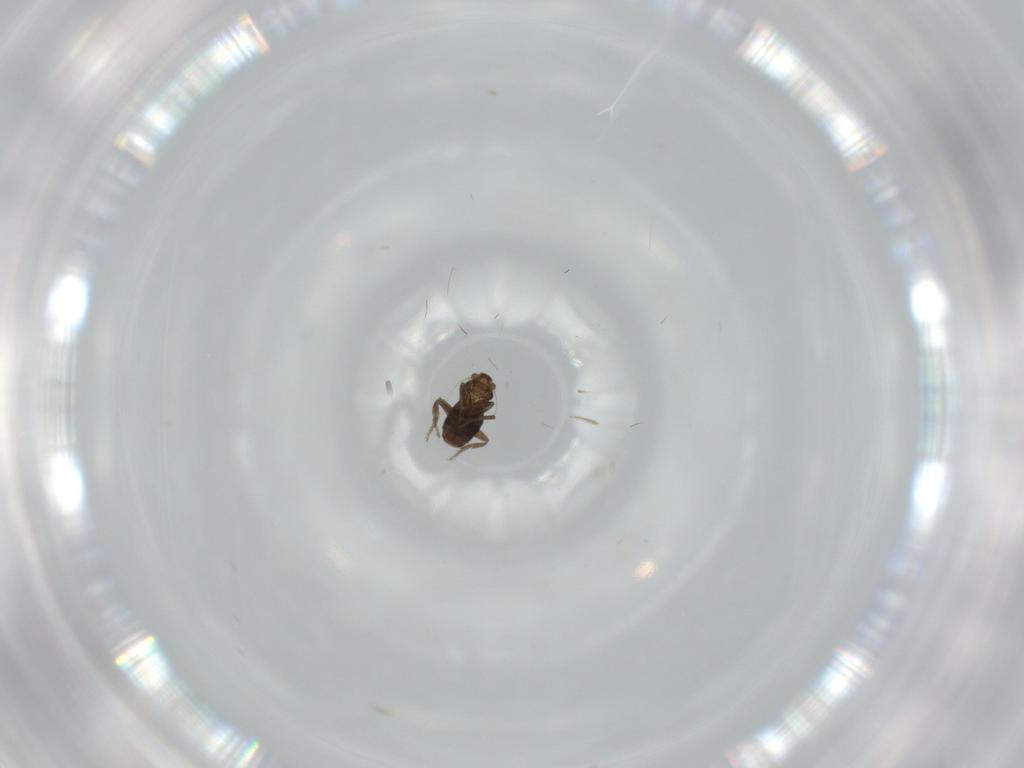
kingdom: Animalia
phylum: Arthropoda
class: Insecta
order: Diptera
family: Phoridae
